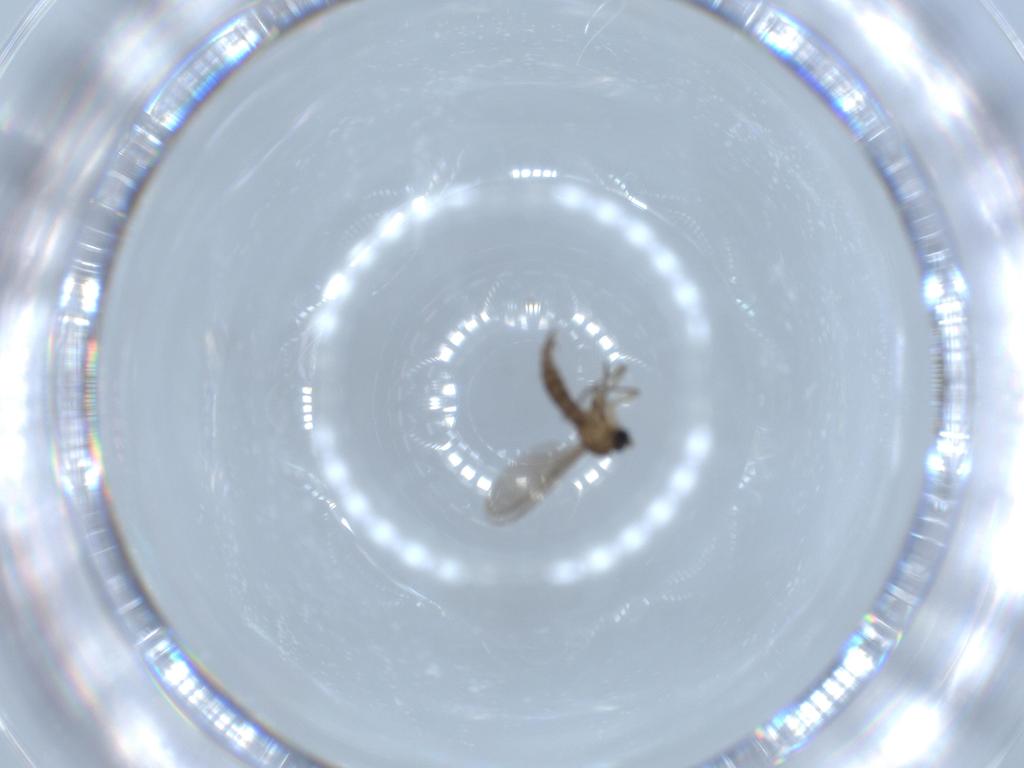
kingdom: Animalia
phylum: Arthropoda
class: Insecta
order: Diptera
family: Sciaridae
